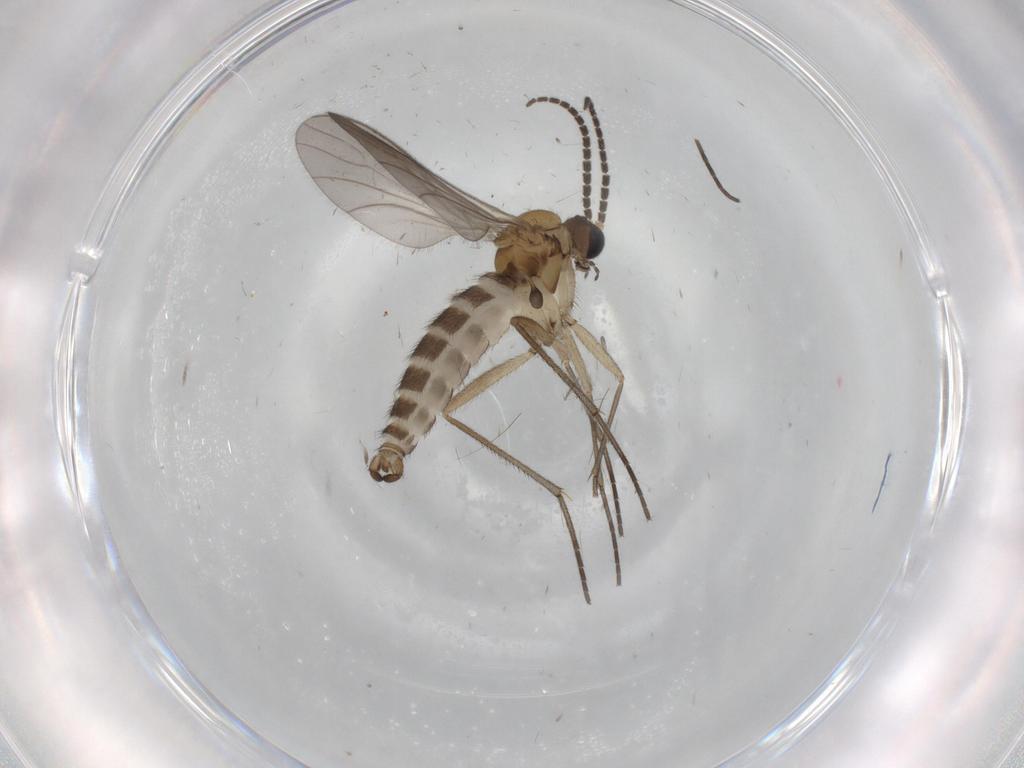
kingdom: Animalia
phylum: Arthropoda
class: Insecta
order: Diptera
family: Sciaridae
